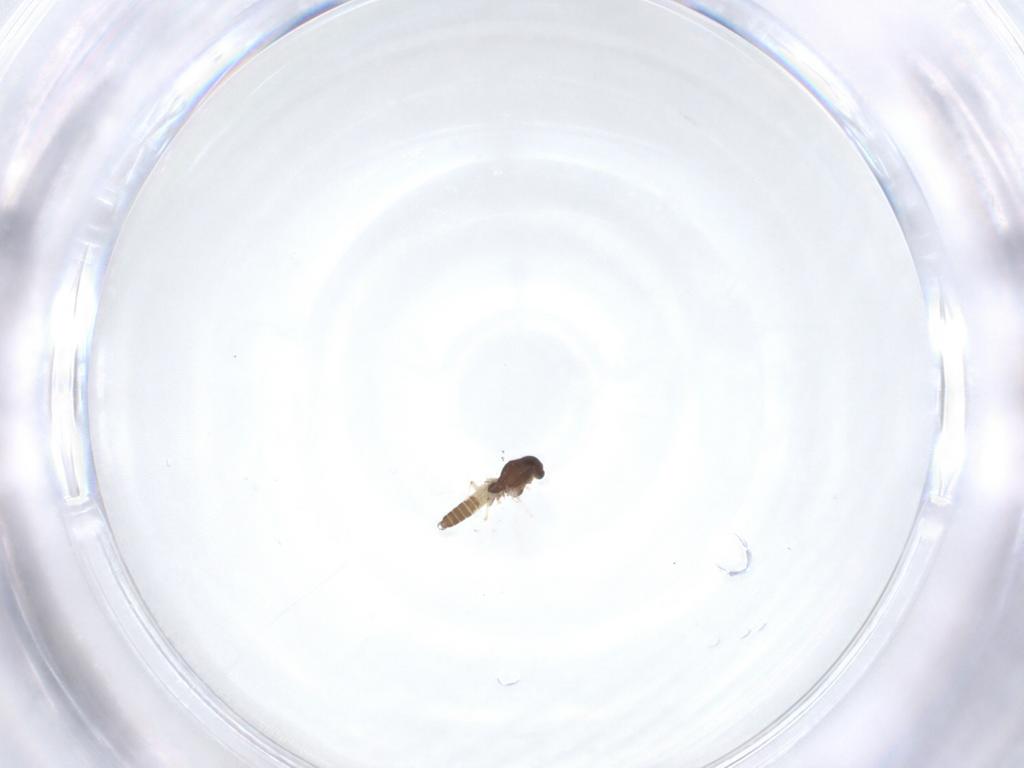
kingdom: Animalia
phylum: Arthropoda
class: Insecta
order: Diptera
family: Chironomidae
